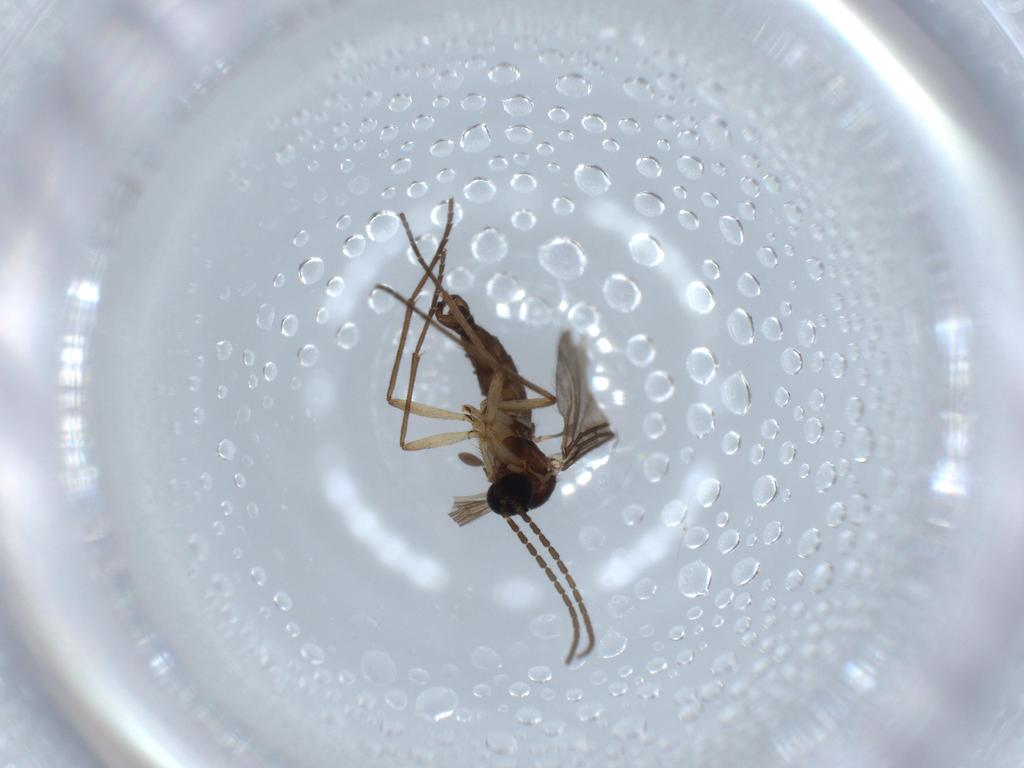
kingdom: Animalia
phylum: Arthropoda
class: Insecta
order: Diptera
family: Sciaridae
